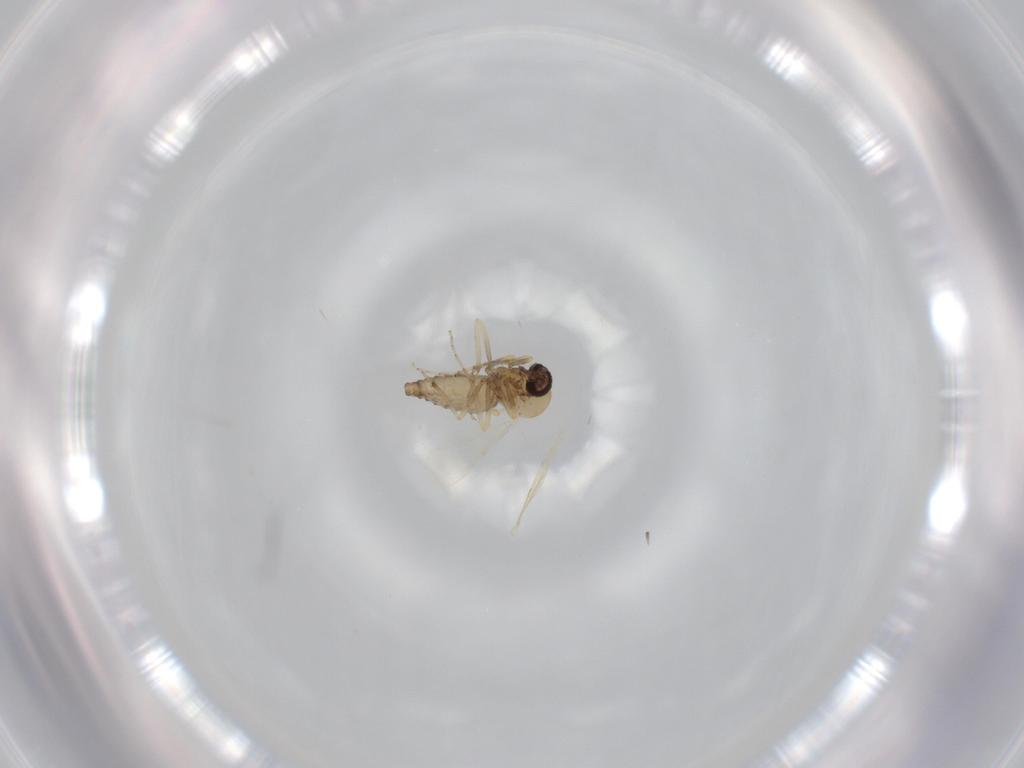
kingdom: Animalia
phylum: Arthropoda
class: Insecta
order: Diptera
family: Ceratopogonidae
